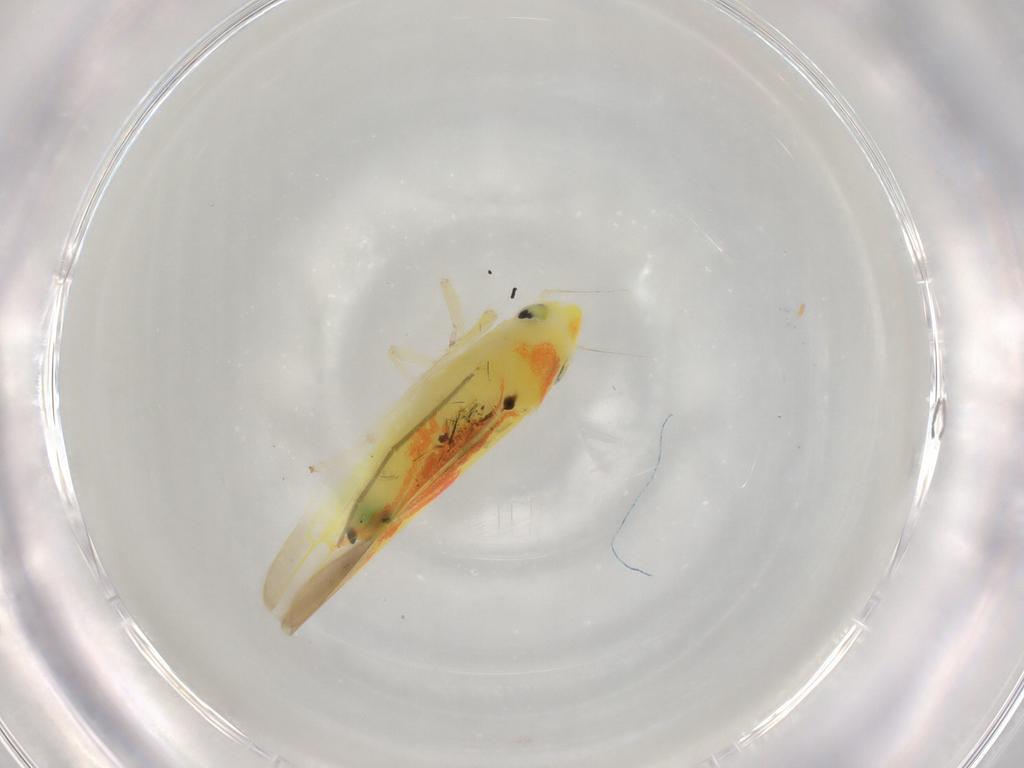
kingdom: Animalia
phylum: Arthropoda
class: Insecta
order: Hemiptera
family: Cicadellidae
